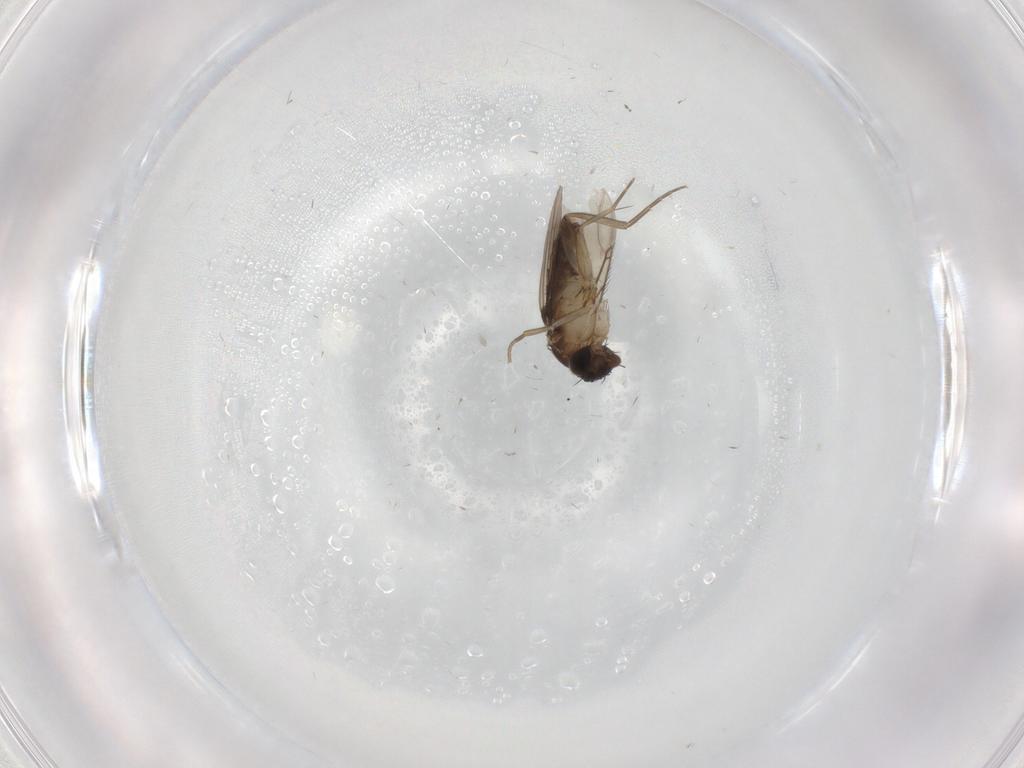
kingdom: Animalia
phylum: Arthropoda
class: Insecta
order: Diptera
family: Phoridae
